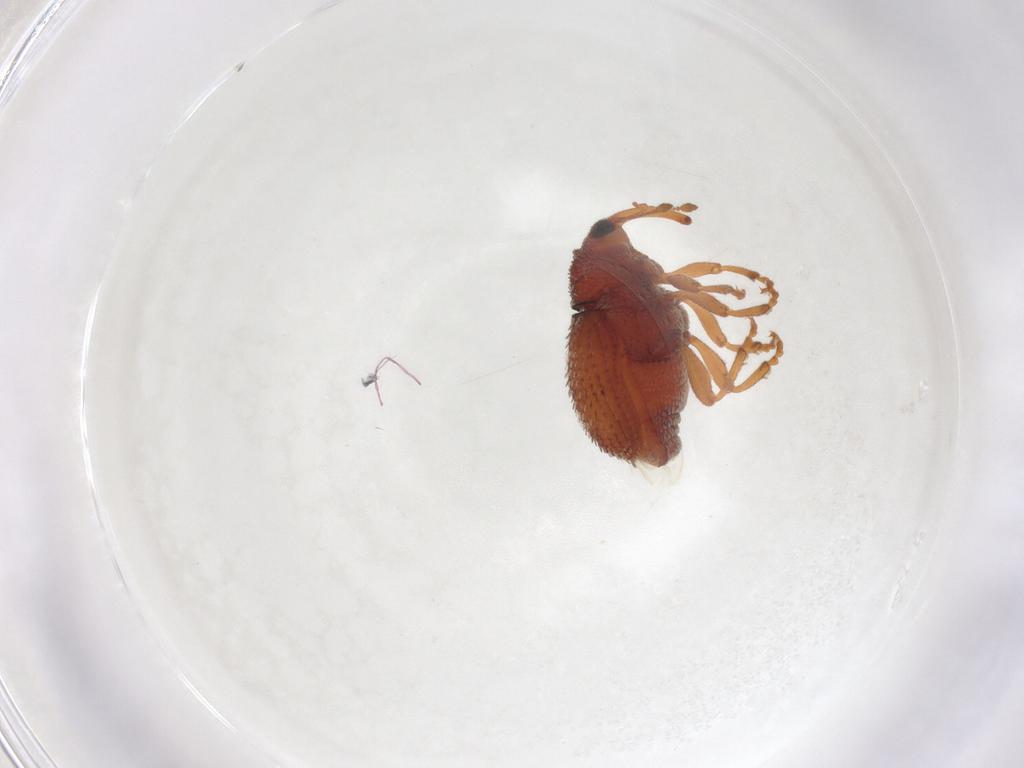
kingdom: Animalia
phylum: Arthropoda
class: Insecta
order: Coleoptera
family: Curculionidae
